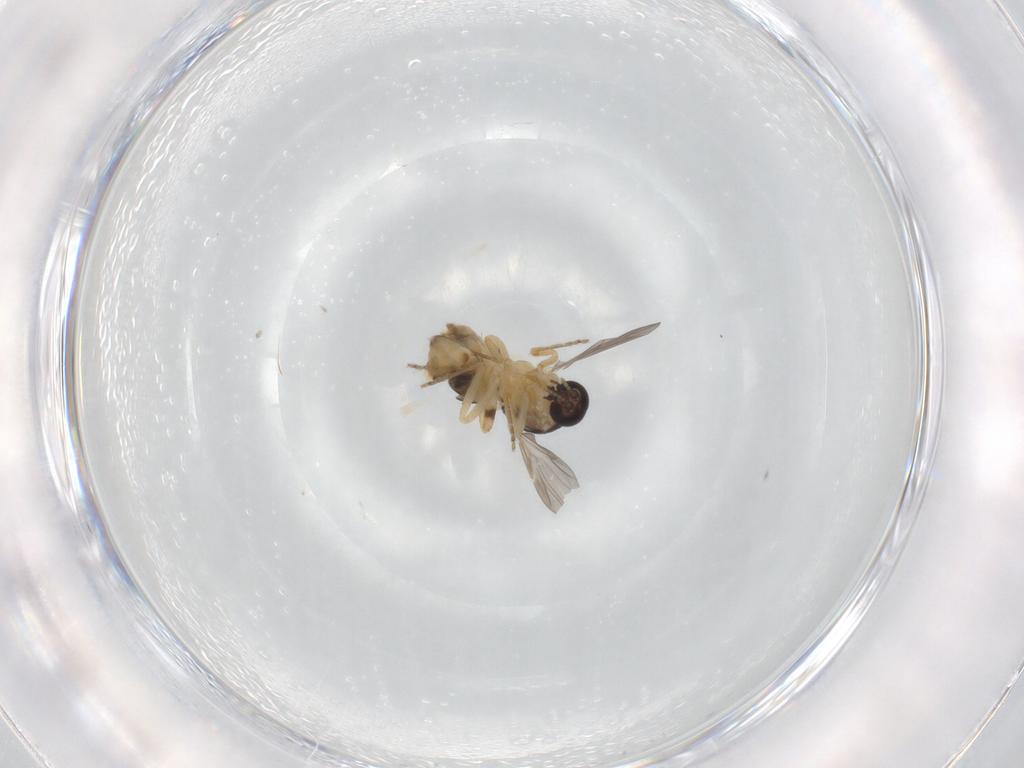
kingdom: Animalia
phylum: Arthropoda
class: Insecta
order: Diptera
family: Ceratopogonidae
